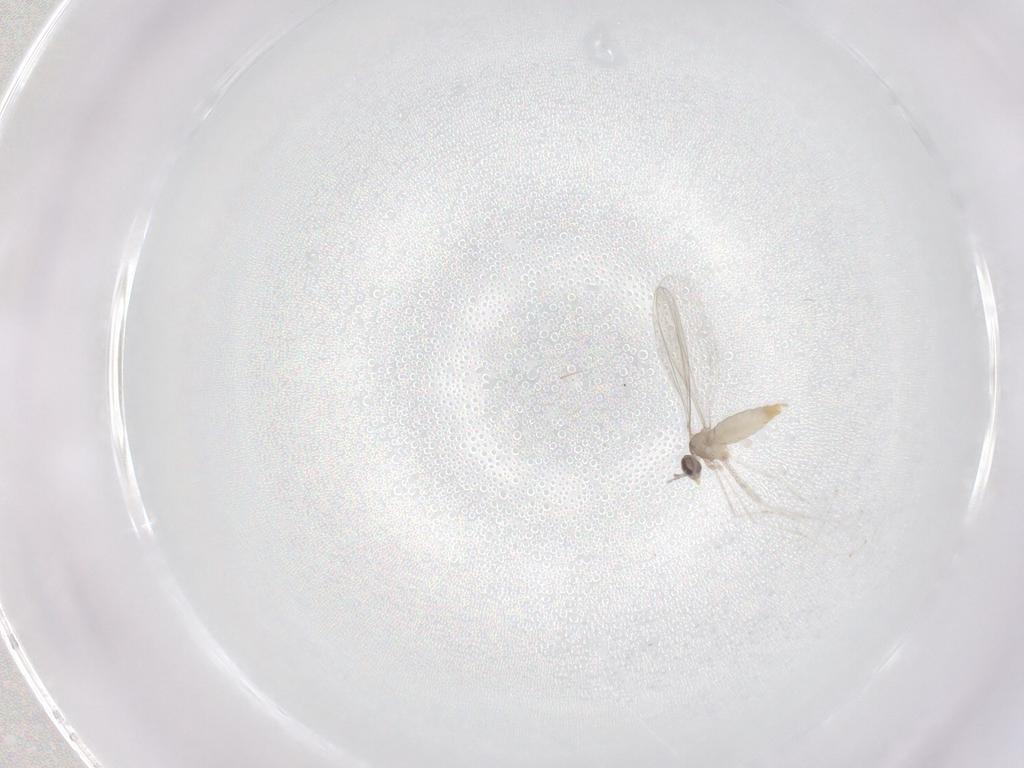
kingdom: Animalia
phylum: Arthropoda
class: Insecta
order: Diptera
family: Cecidomyiidae
